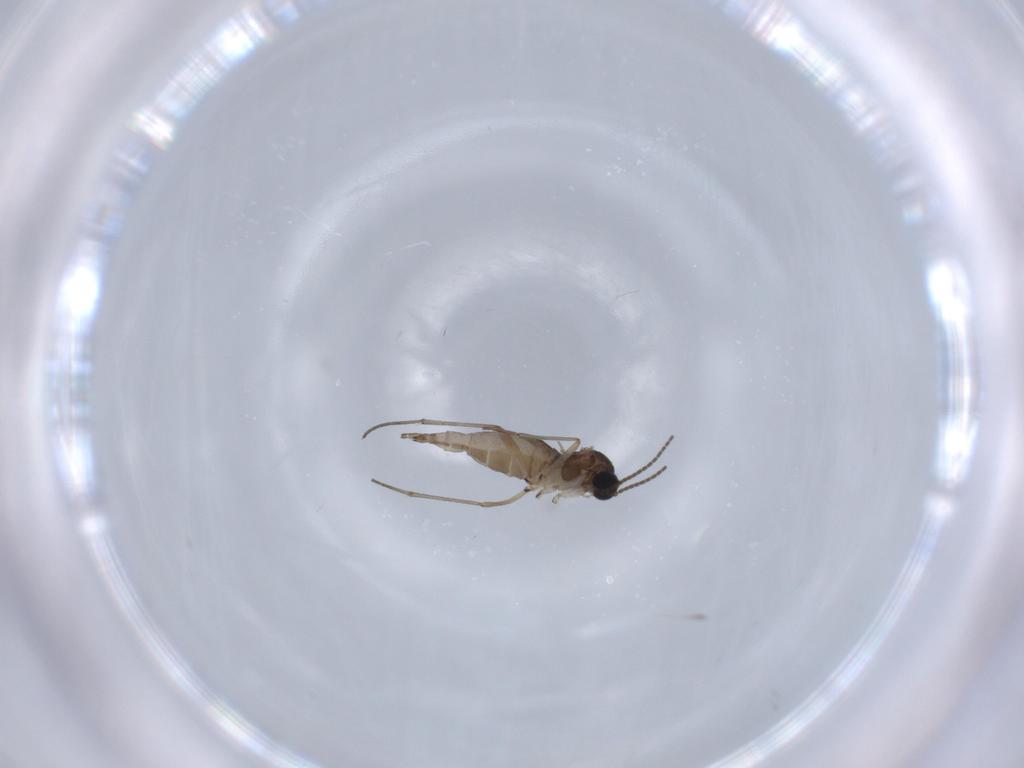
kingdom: Animalia
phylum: Arthropoda
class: Insecta
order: Diptera
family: Sciaridae
